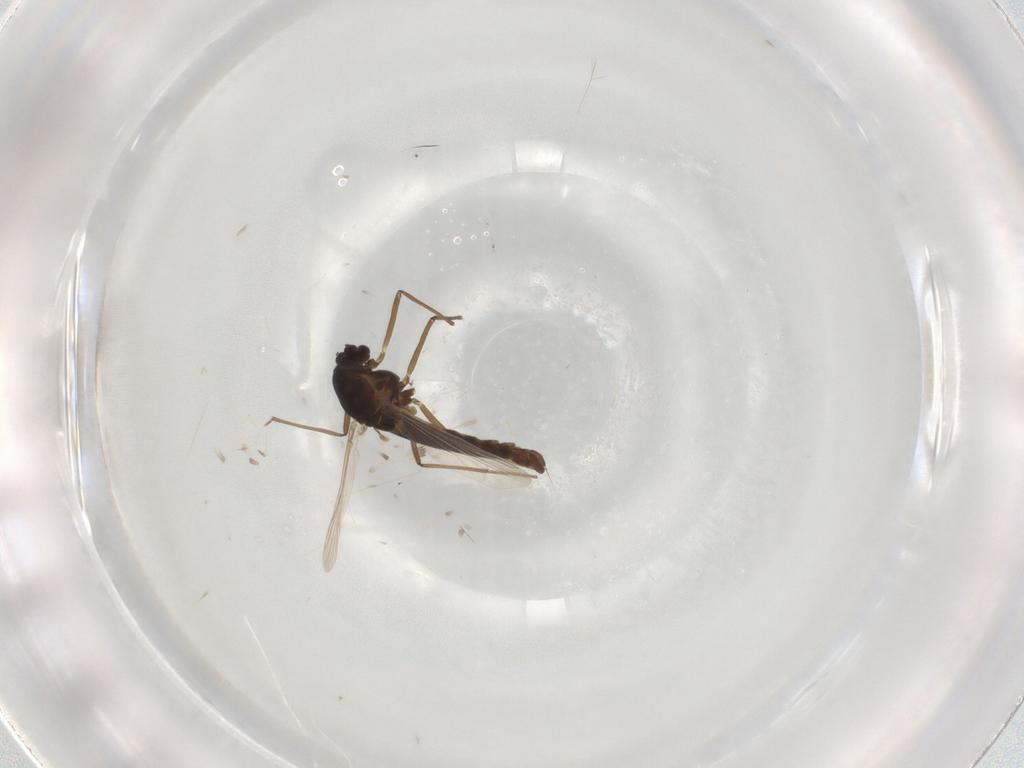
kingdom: Animalia
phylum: Arthropoda
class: Insecta
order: Diptera
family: Chironomidae
